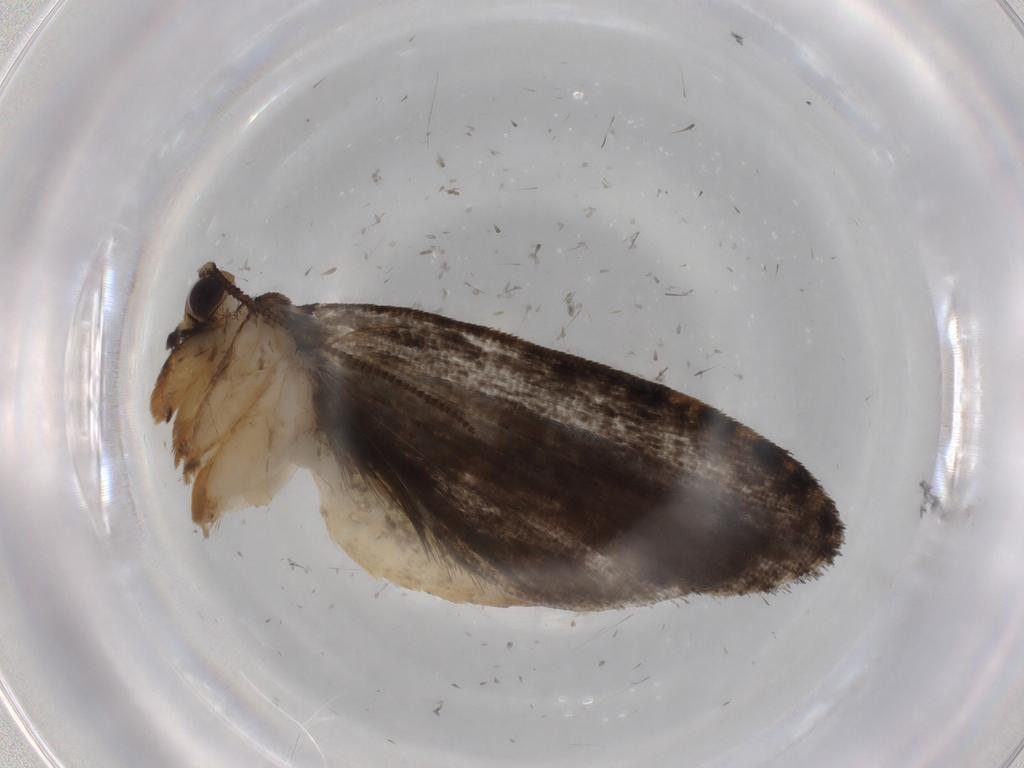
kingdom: Animalia
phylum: Arthropoda
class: Insecta
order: Lepidoptera
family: Tineidae
